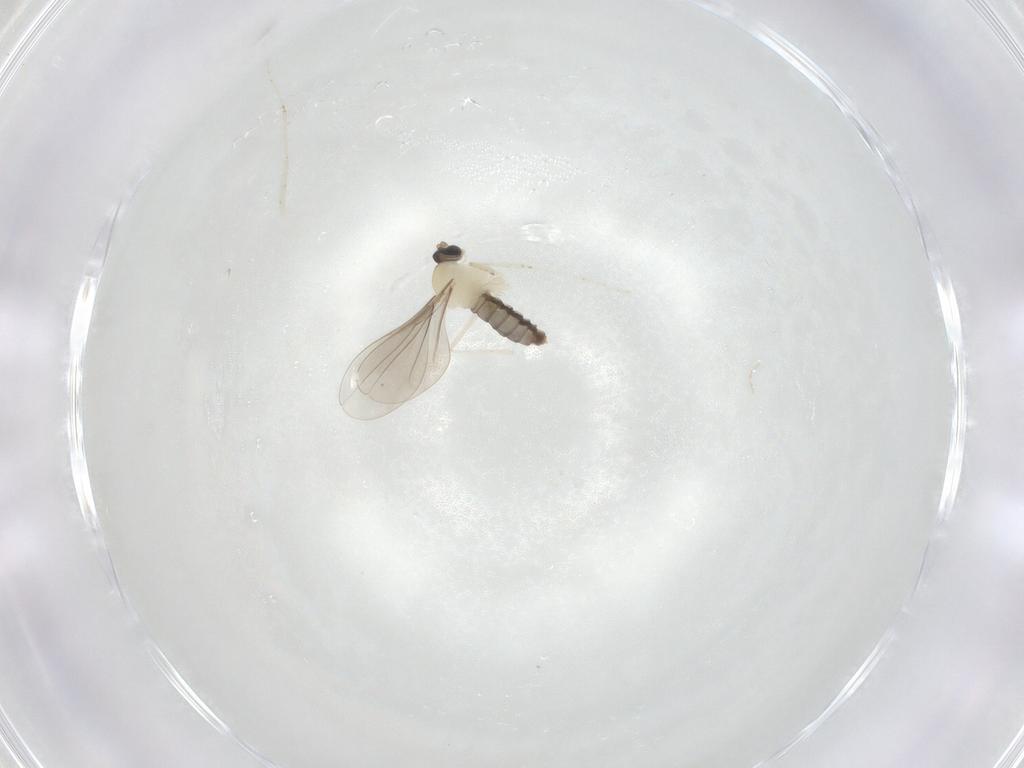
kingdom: Animalia
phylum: Arthropoda
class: Insecta
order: Diptera
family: Cecidomyiidae
